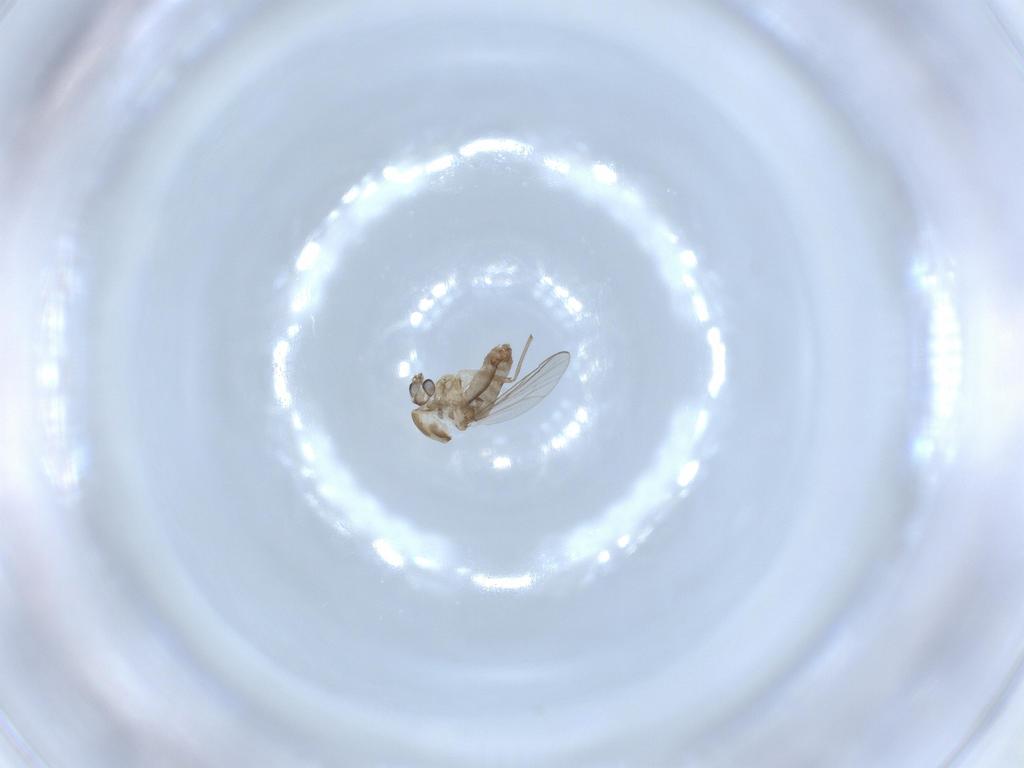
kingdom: Animalia
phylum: Arthropoda
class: Insecta
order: Diptera
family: Chironomidae
